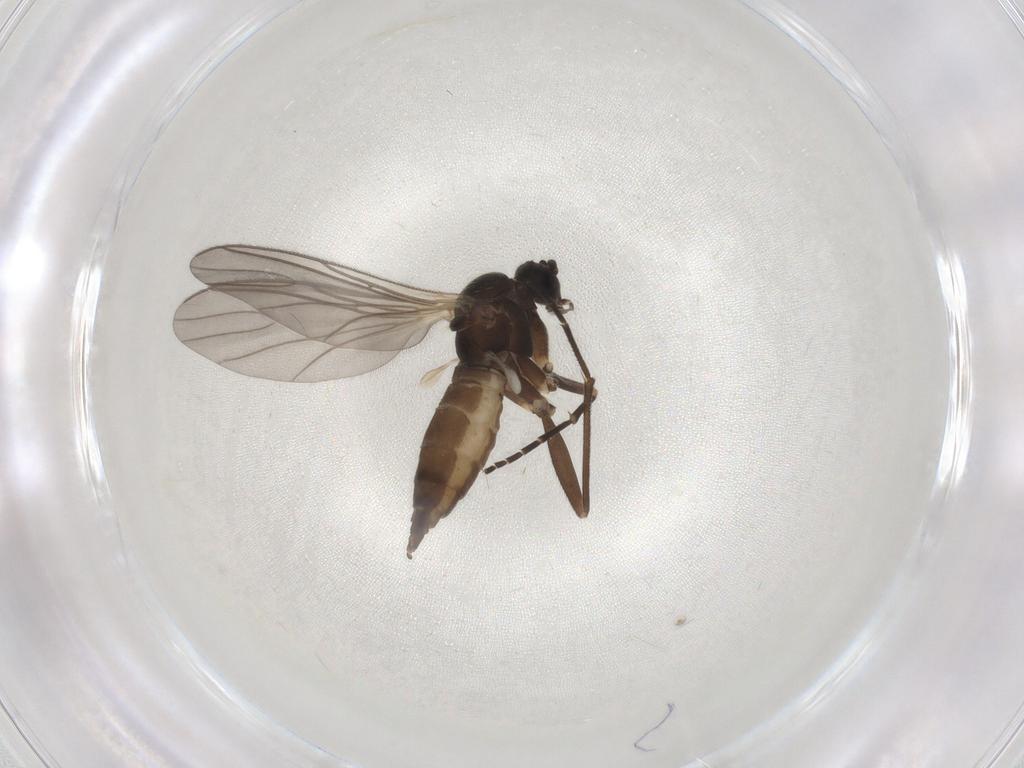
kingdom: Animalia
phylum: Arthropoda
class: Insecta
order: Diptera
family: Sciaridae
